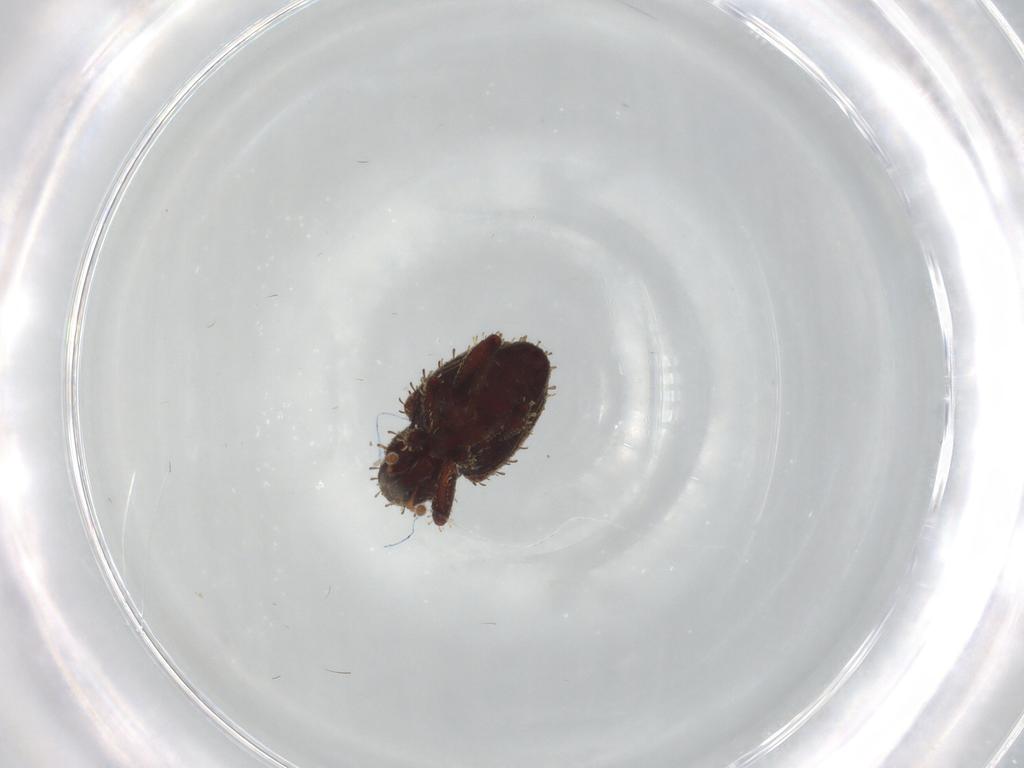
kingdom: Animalia
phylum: Arthropoda
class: Insecta
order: Coleoptera
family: Curculionidae
